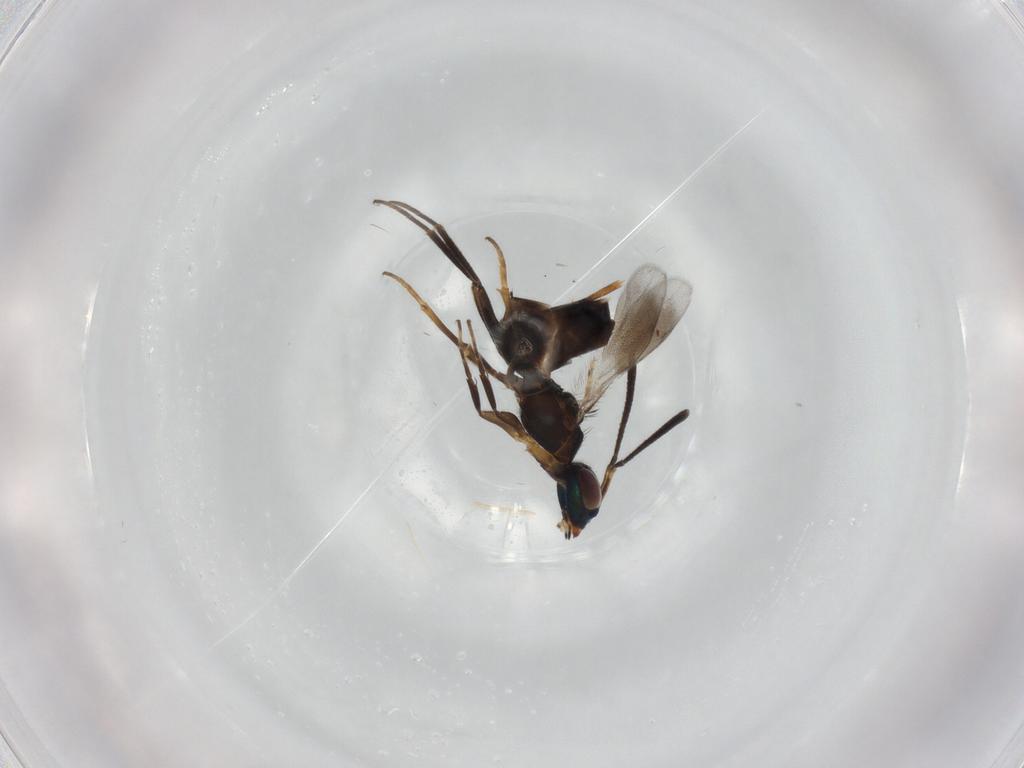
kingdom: Animalia
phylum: Arthropoda
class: Insecta
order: Hymenoptera
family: Eupelmidae
